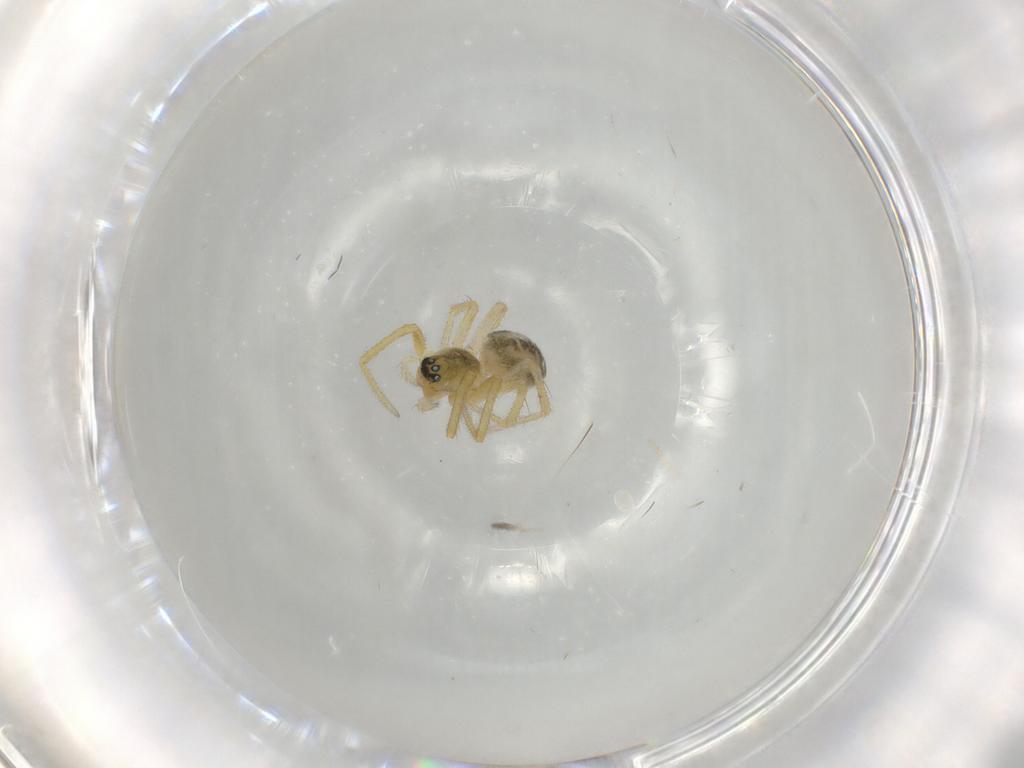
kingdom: Animalia
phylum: Arthropoda
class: Arachnida
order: Araneae
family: Linyphiidae
